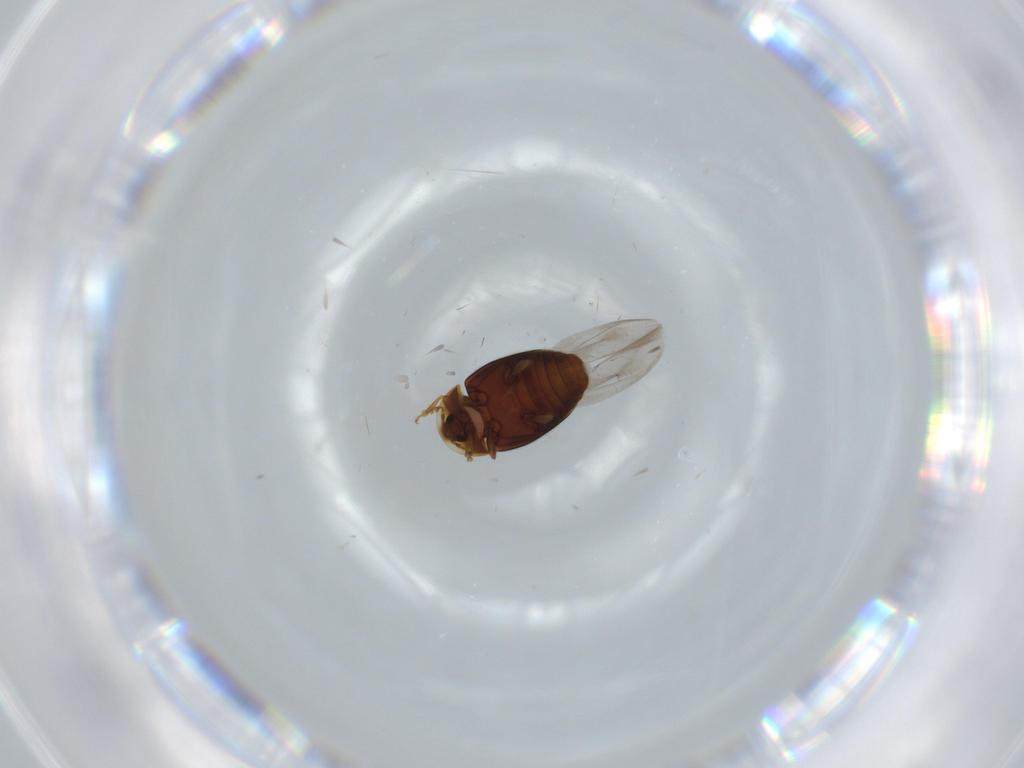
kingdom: Animalia
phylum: Arthropoda
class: Insecta
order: Coleoptera
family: Corylophidae
